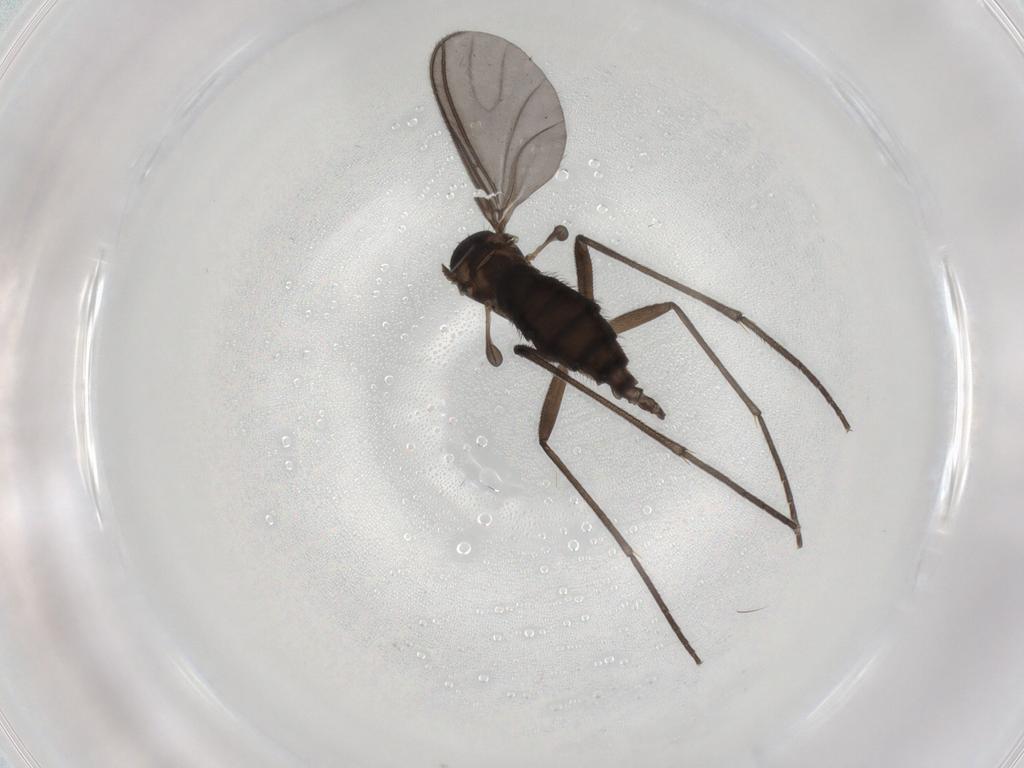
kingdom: Animalia
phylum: Arthropoda
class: Insecta
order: Diptera
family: Sciaridae
